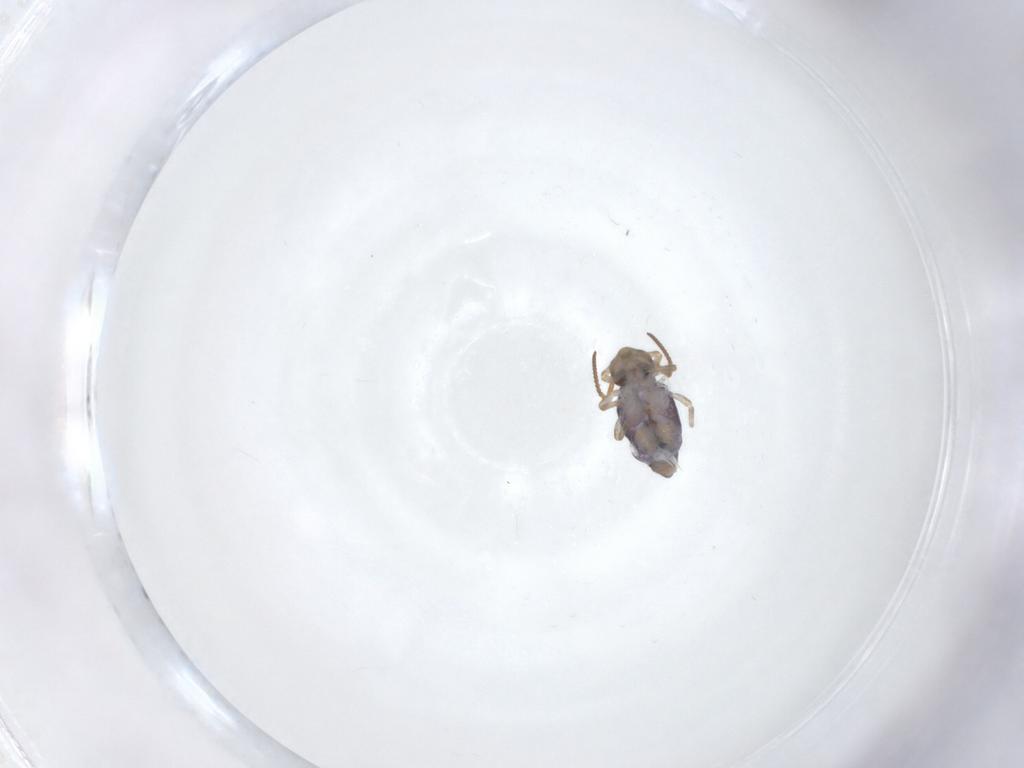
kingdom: Animalia
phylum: Arthropoda
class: Collembola
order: Symphypleona
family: Katiannidae
